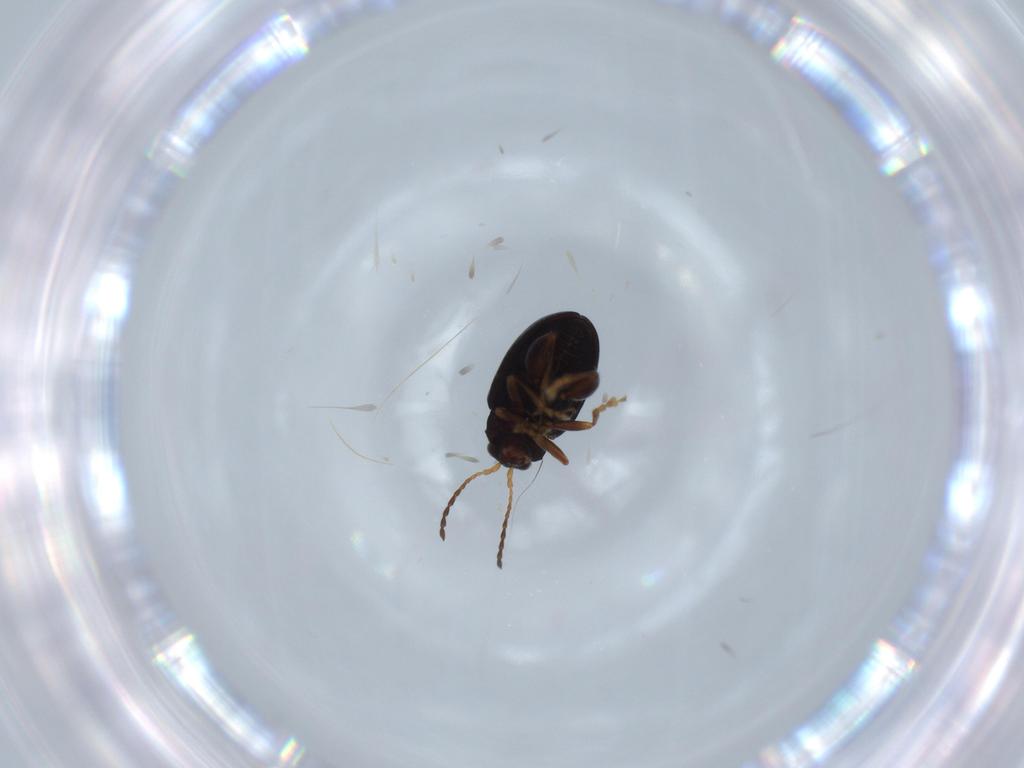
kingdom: Animalia
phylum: Arthropoda
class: Insecta
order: Coleoptera
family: Chrysomelidae
